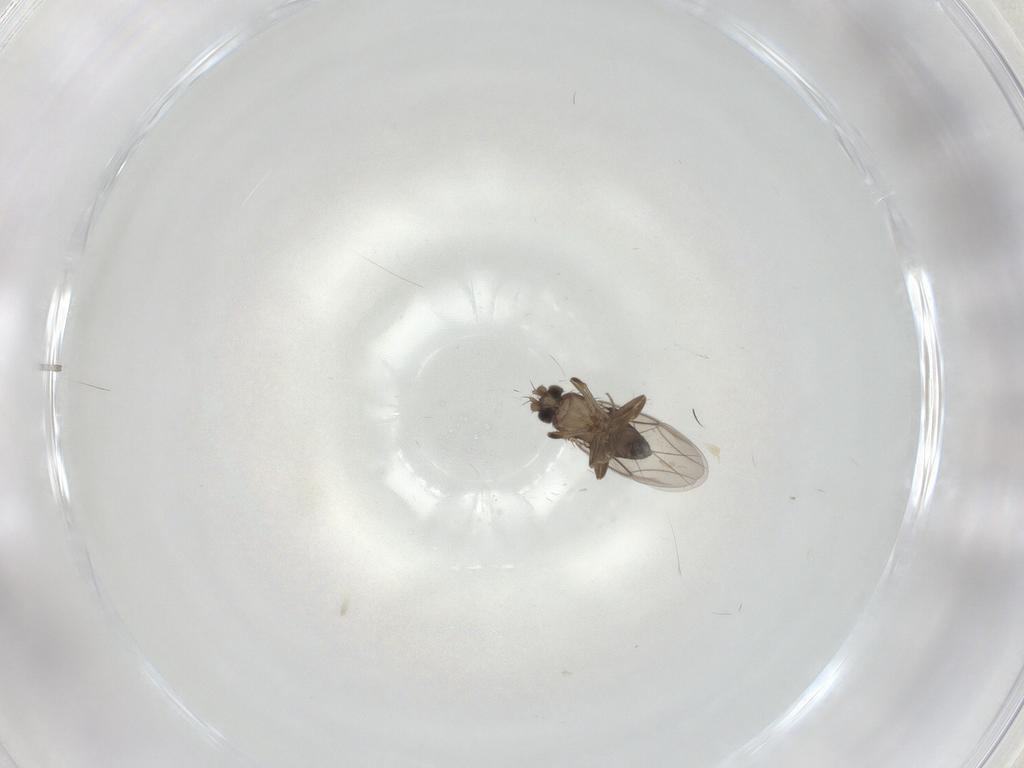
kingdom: Animalia
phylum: Arthropoda
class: Insecta
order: Diptera
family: Phoridae
